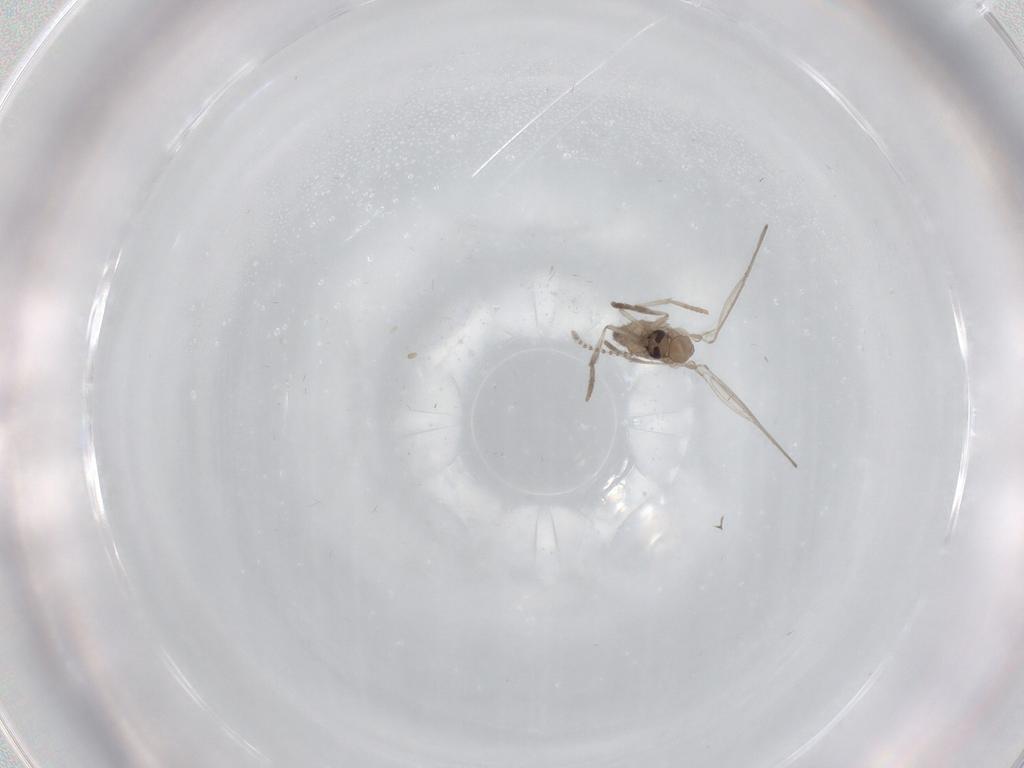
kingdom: Animalia
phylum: Arthropoda
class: Insecta
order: Diptera
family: Psychodidae
